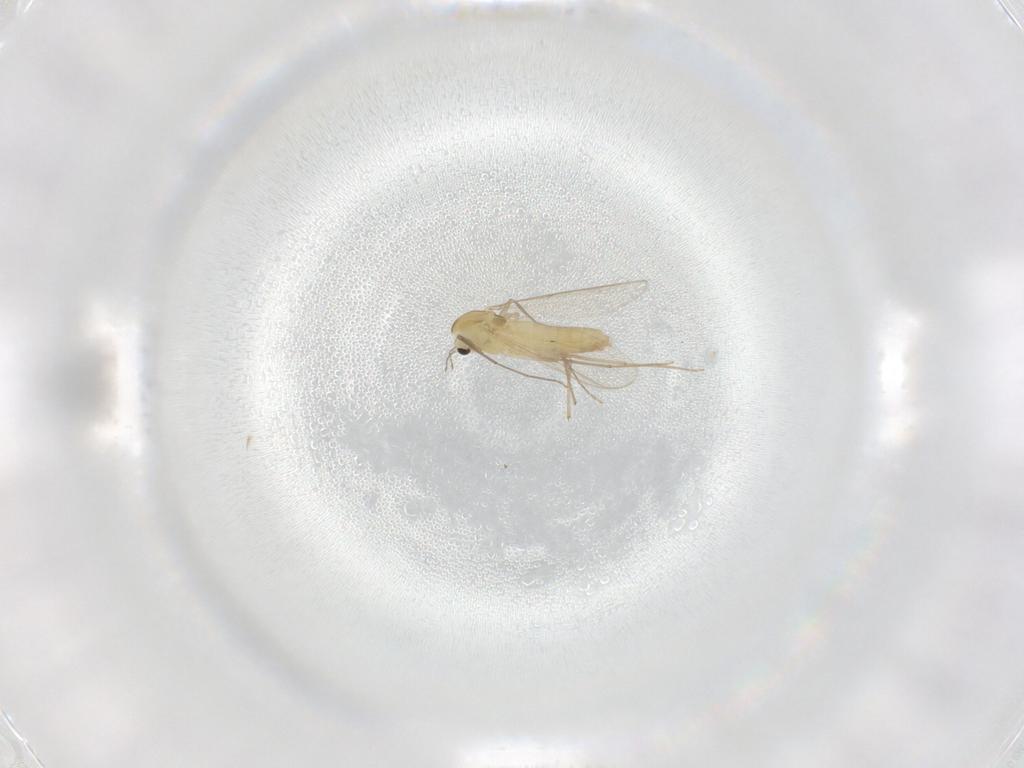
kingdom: Animalia
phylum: Arthropoda
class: Insecta
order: Diptera
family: Chironomidae
